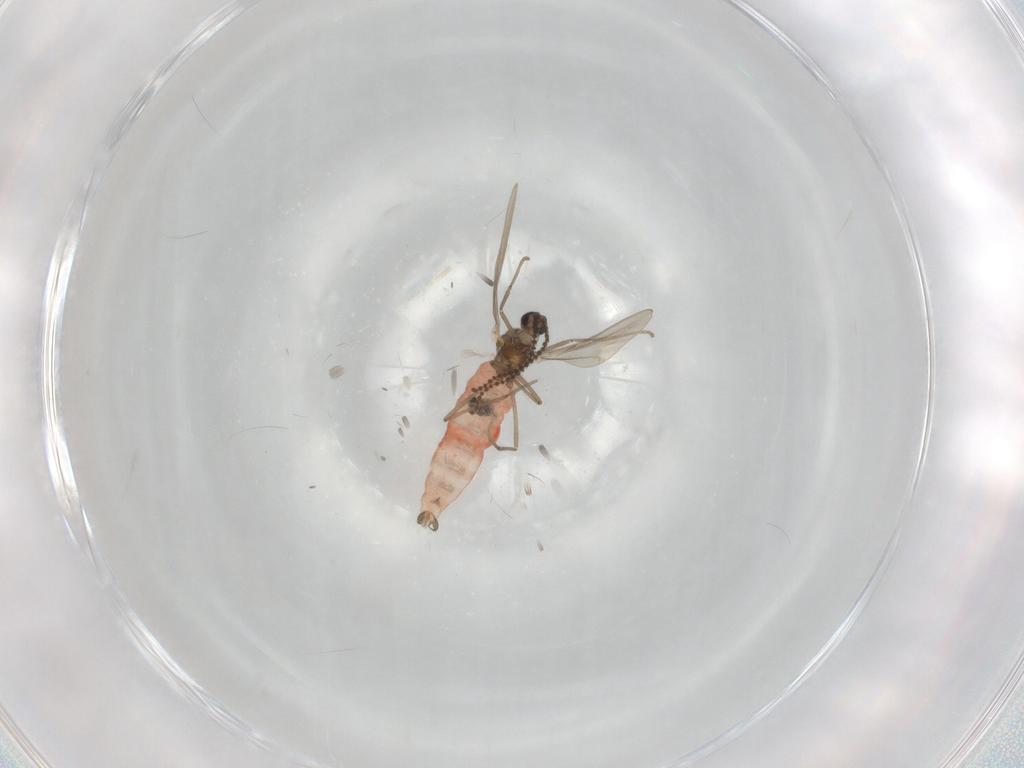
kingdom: Animalia
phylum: Arthropoda
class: Insecta
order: Diptera
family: Cecidomyiidae
